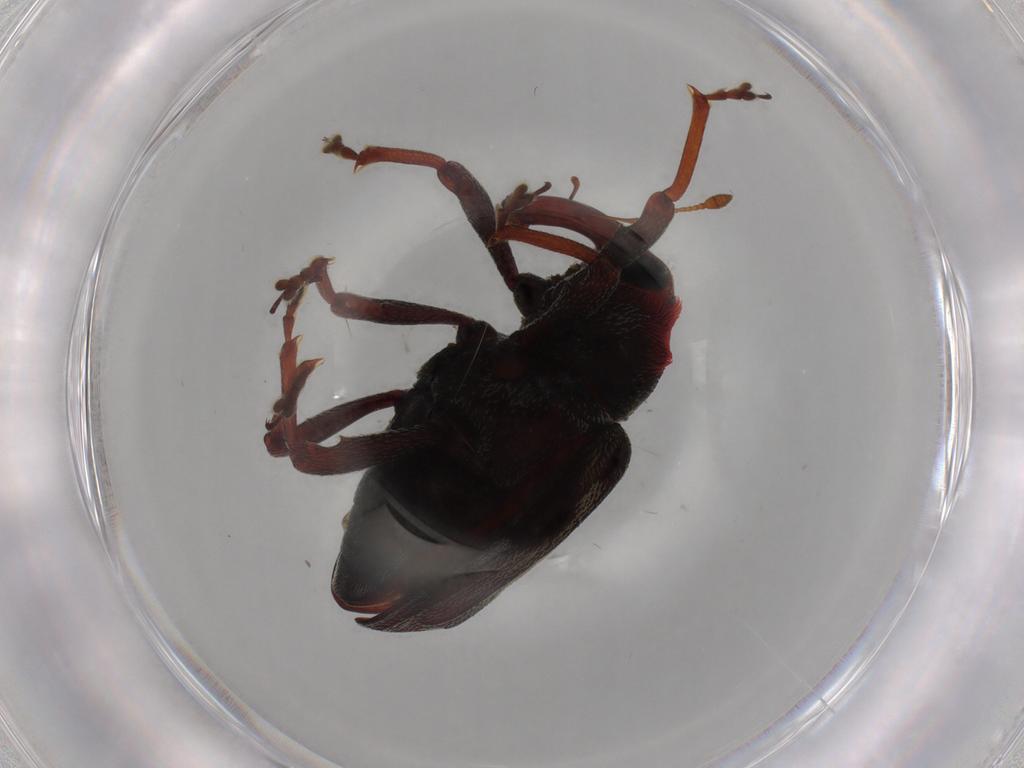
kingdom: Animalia
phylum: Arthropoda
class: Insecta
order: Coleoptera
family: Curculionidae
